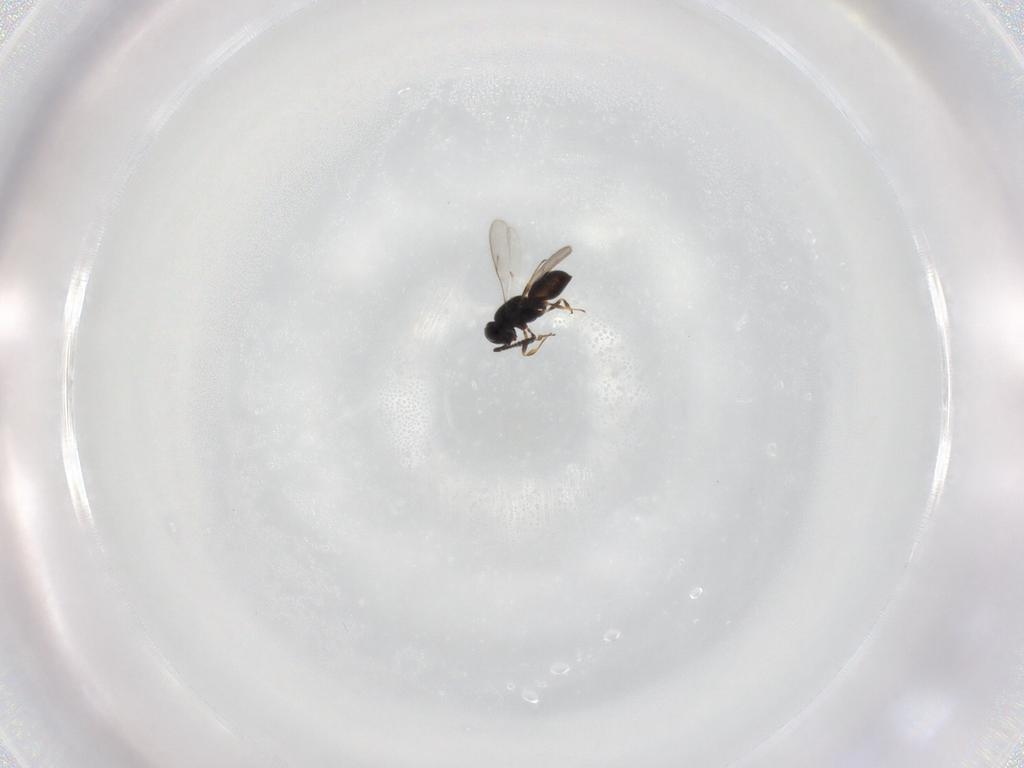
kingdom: Animalia
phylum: Arthropoda
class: Insecta
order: Hymenoptera
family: Scelionidae
